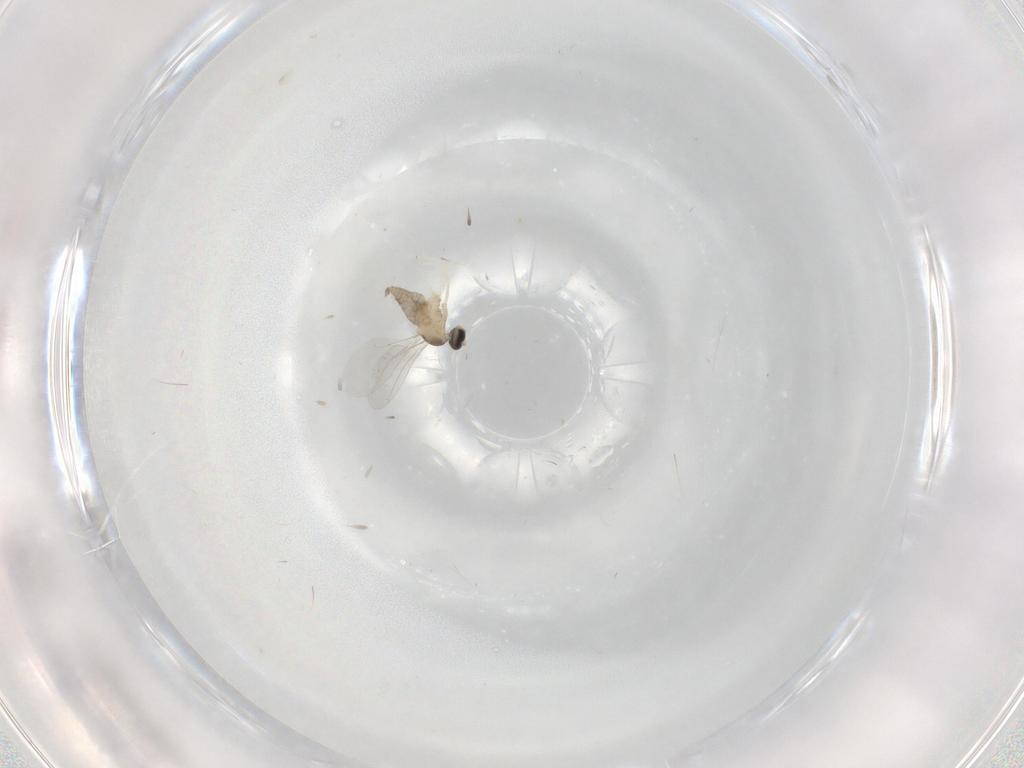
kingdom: Animalia
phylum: Arthropoda
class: Insecta
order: Diptera
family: Cecidomyiidae
